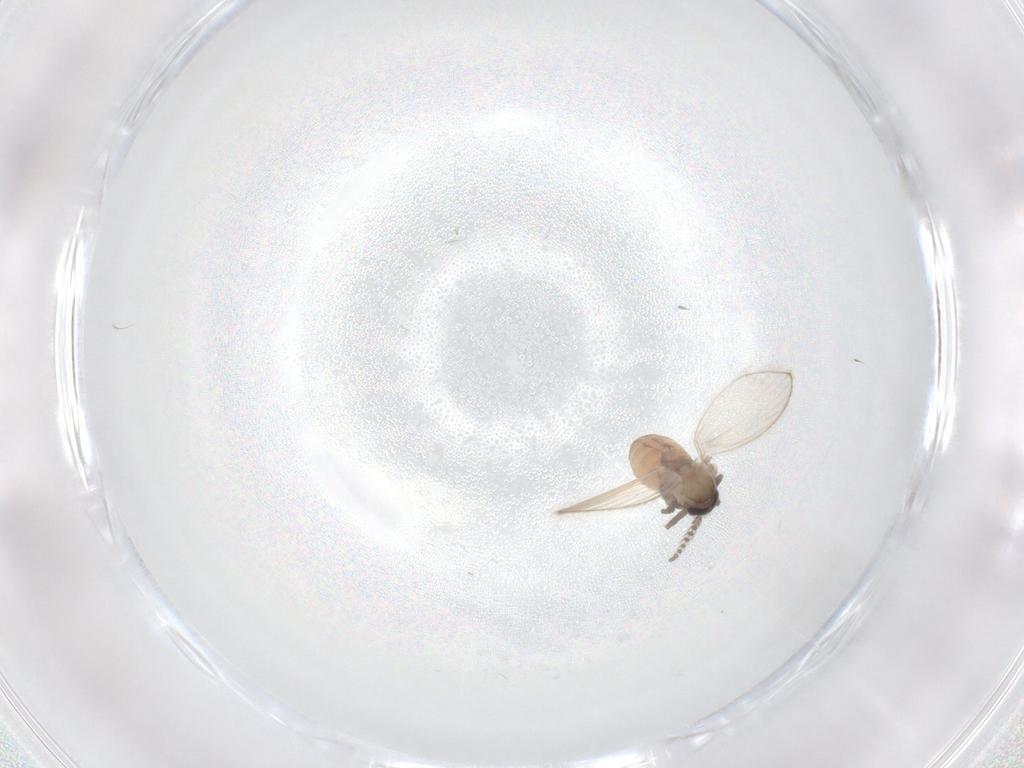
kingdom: Animalia
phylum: Arthropoda
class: Insecta
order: Diptera
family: Psychodidae
